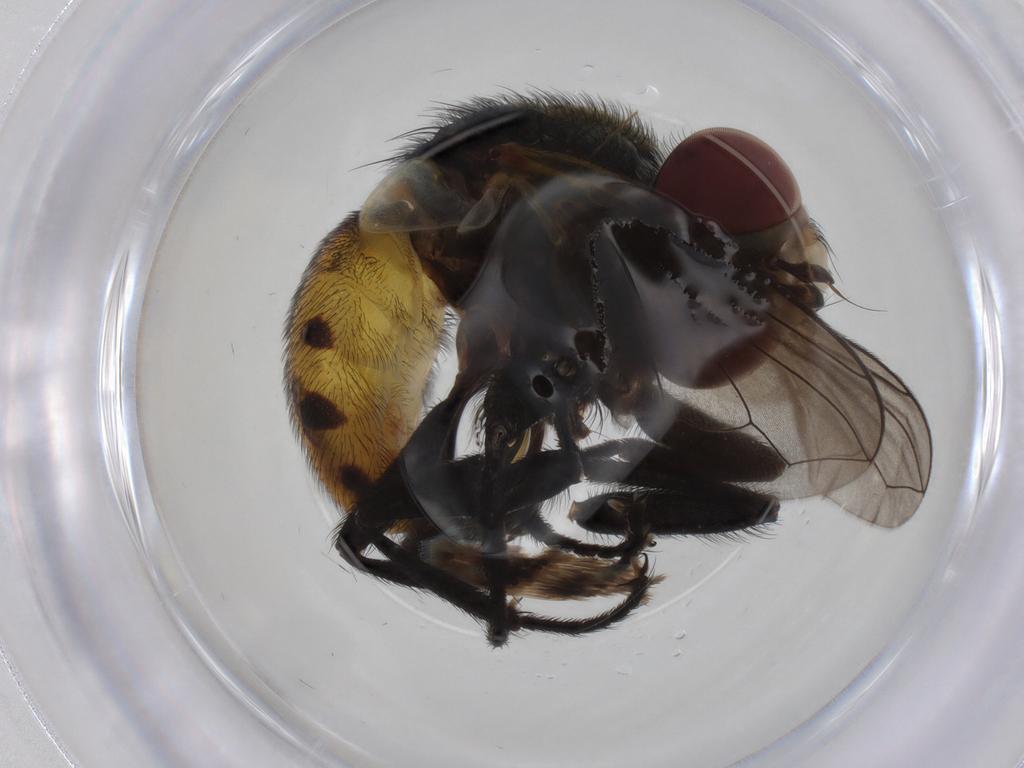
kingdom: Animalia
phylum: Arthropoda
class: Insecta
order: Diptera
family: Tachinidae
